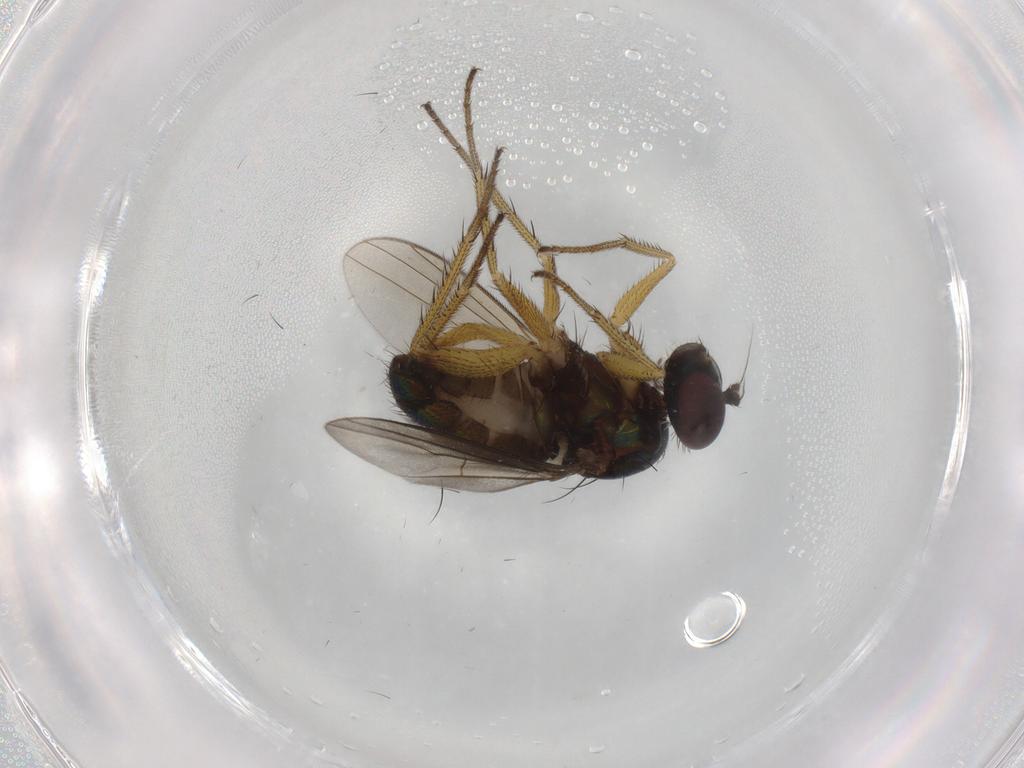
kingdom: Animalia
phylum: Arthropoda
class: Insecta
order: Diptera
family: Dolichopodidae
